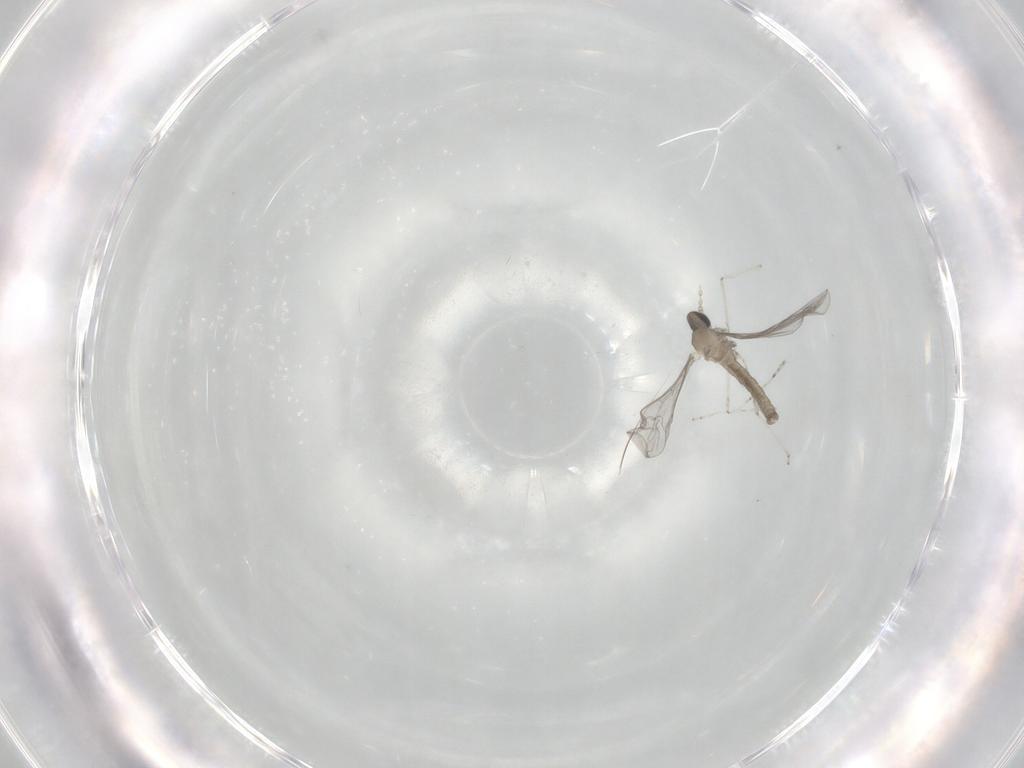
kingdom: Animalia
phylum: Arthropoda
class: Insecta
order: Diptera
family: Cecidomyiidae
